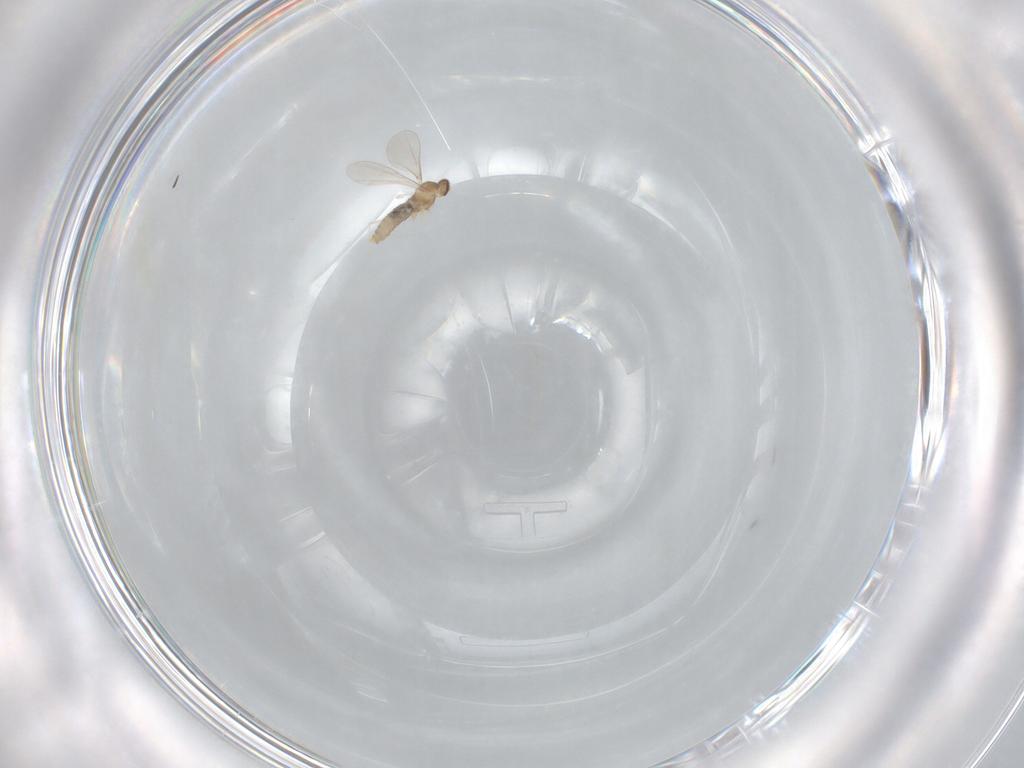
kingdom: Animalia
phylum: Arthropoda
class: Insecta
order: Diptera
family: Cecidomyiidae
